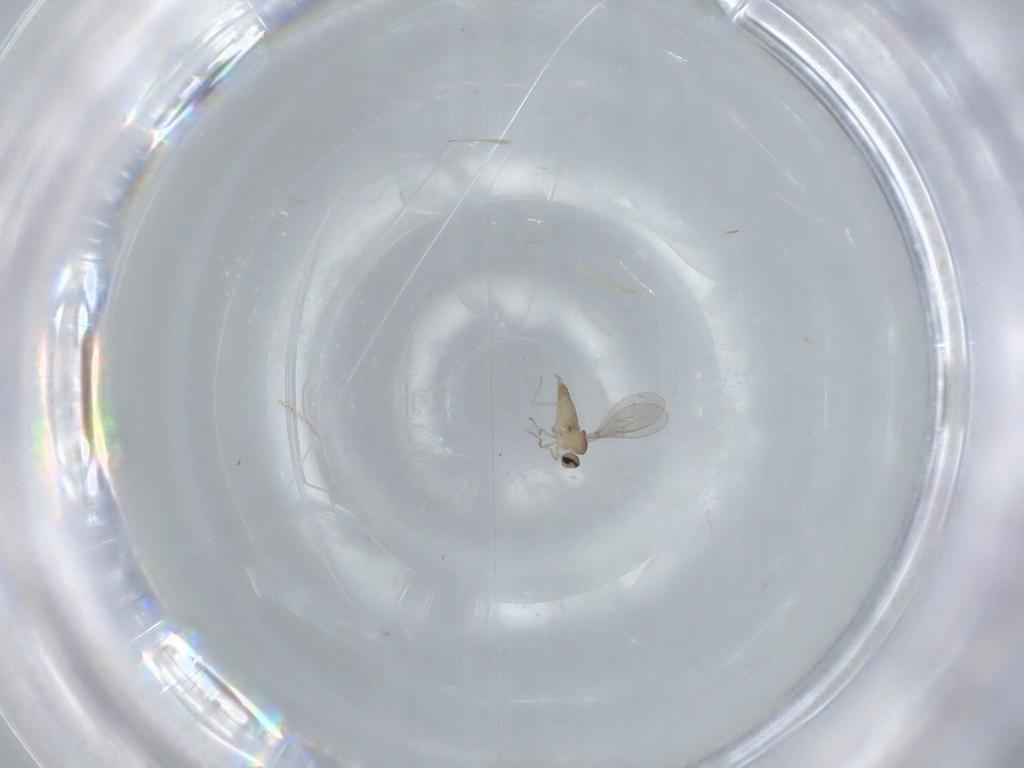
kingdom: Animalia
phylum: Arthropoda
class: Insecta
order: Diptera
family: Cecidomyiidae
